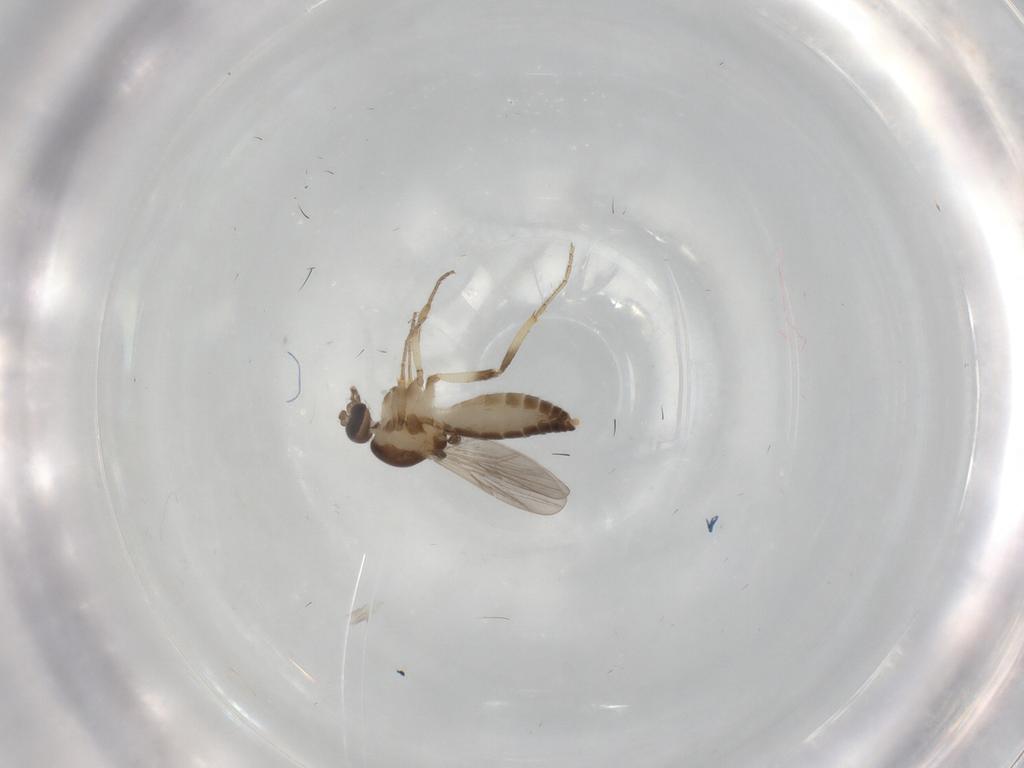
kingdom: Animalia
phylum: Arthropoda
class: Insecta
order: Diptera
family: Ceratopogonidae
